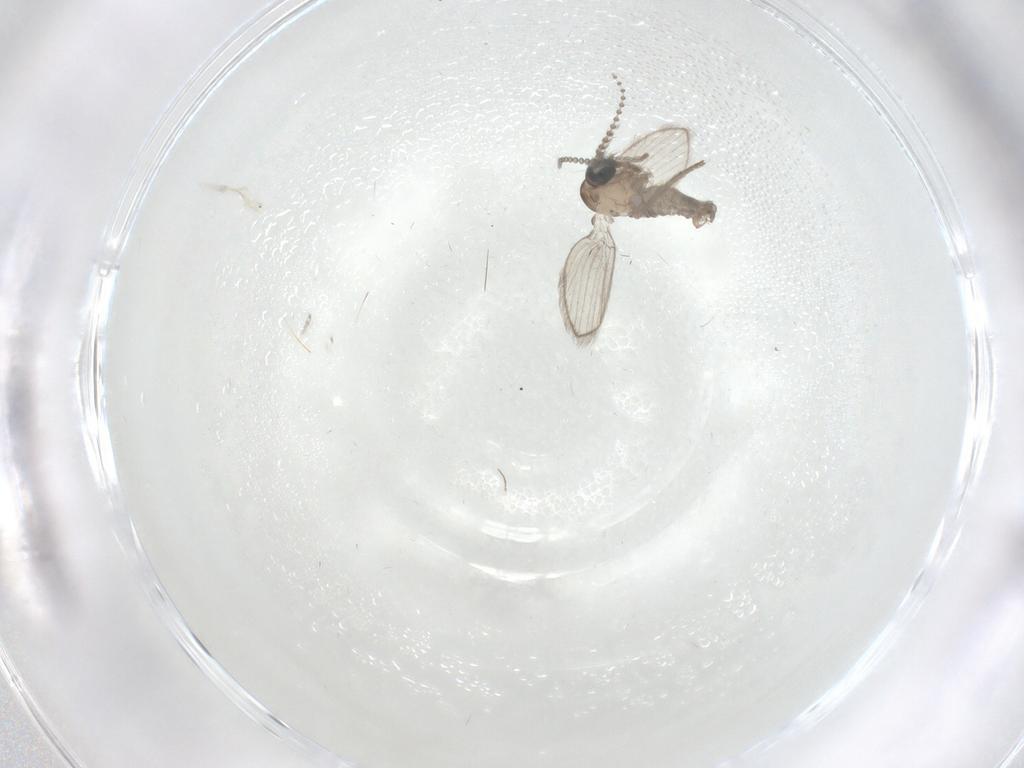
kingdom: Animalia
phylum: Arthropoda
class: Insecta
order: Diptera
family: Psychodidae
